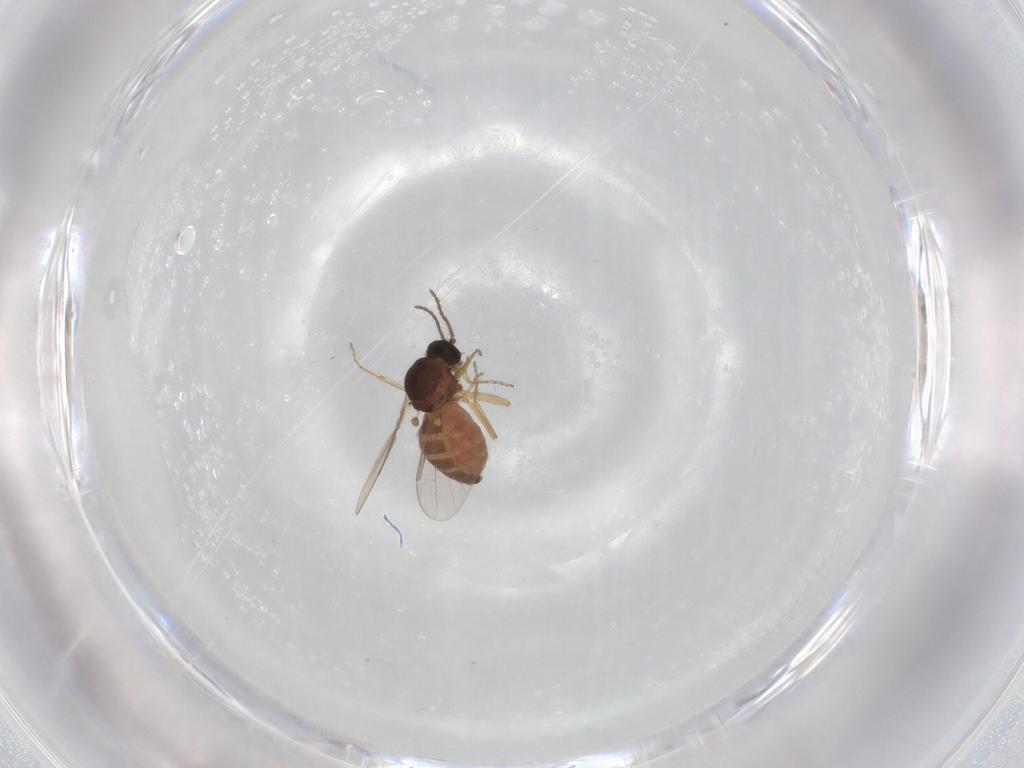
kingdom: Animalia
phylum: Arthropoda
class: Insecta
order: Diptera
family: Ceratopogonidae
